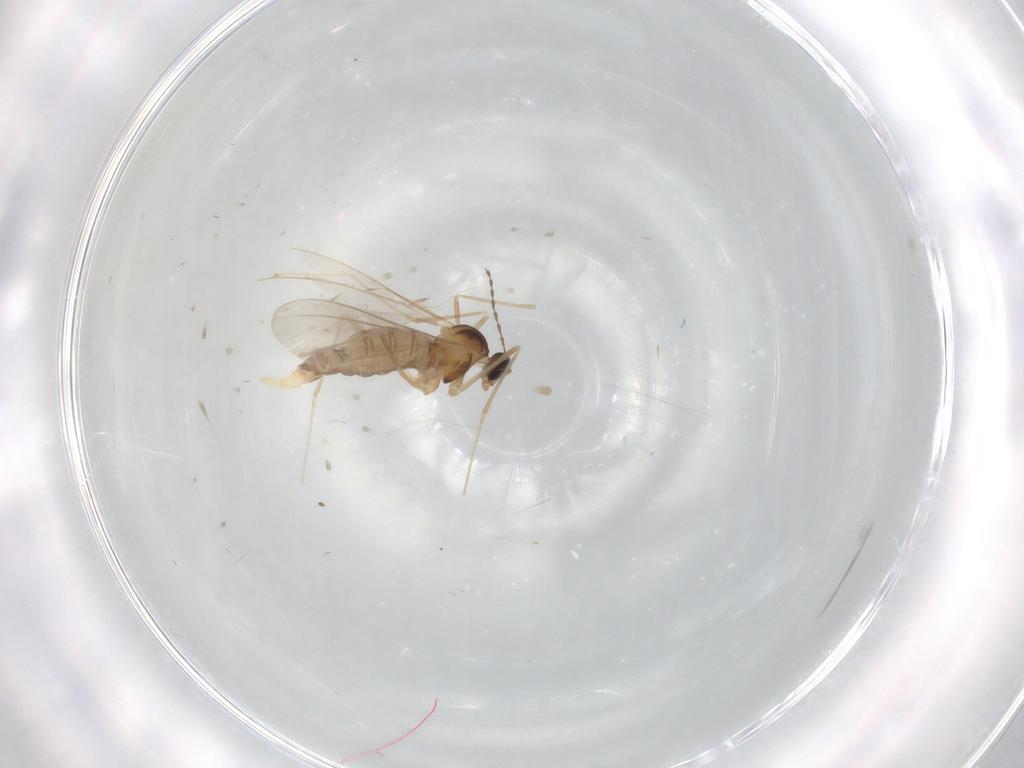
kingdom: Animalia
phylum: Arthropoda
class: Insecta
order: Diptera
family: Cecidomyiidae
